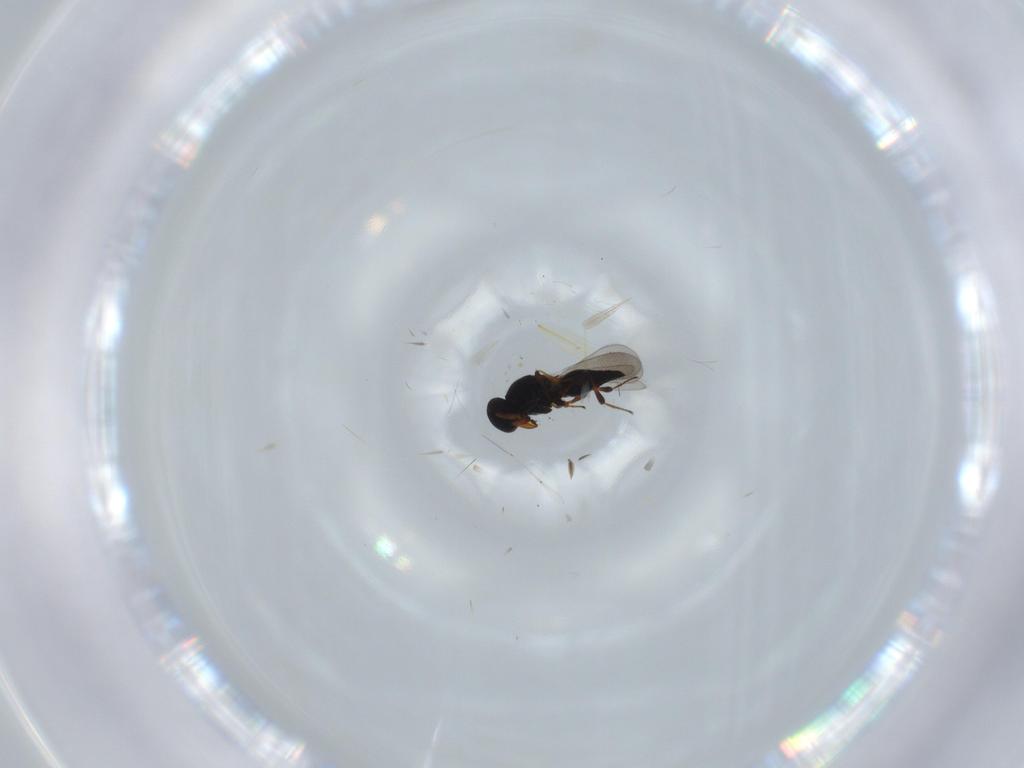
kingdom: Animalia
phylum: Arthropoda
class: Insecta
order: Hymenoptera
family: Platygastridae
